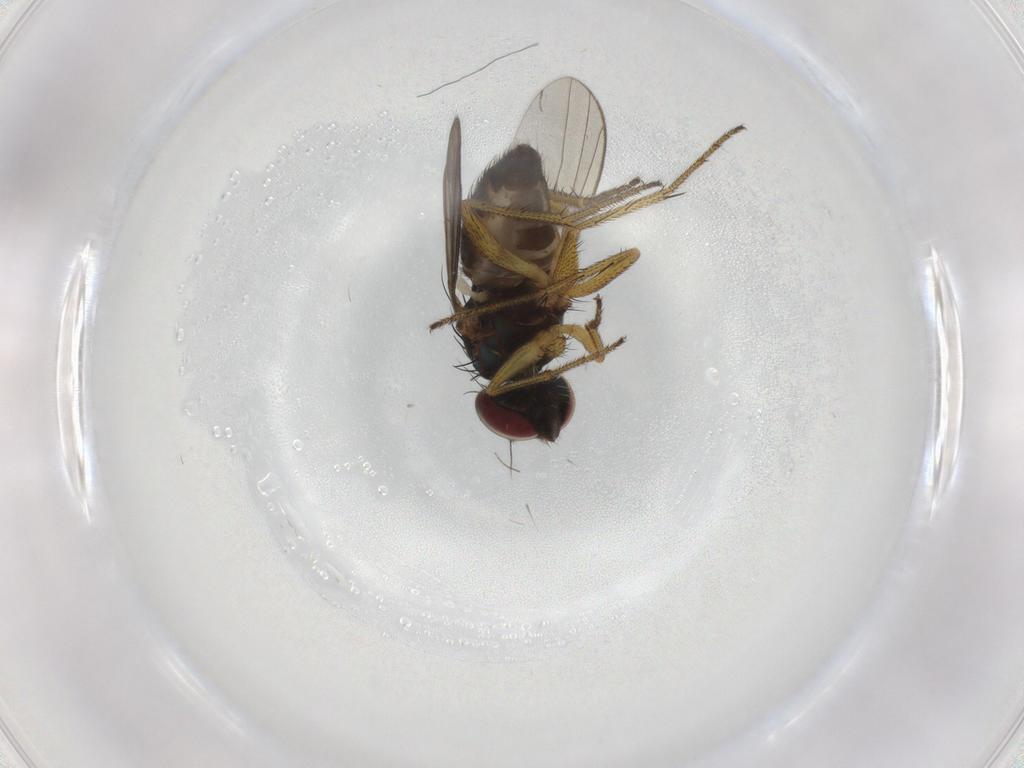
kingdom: Animalia
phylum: Arthropoda
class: Insecta
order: Diptera
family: Dolichopodidae
